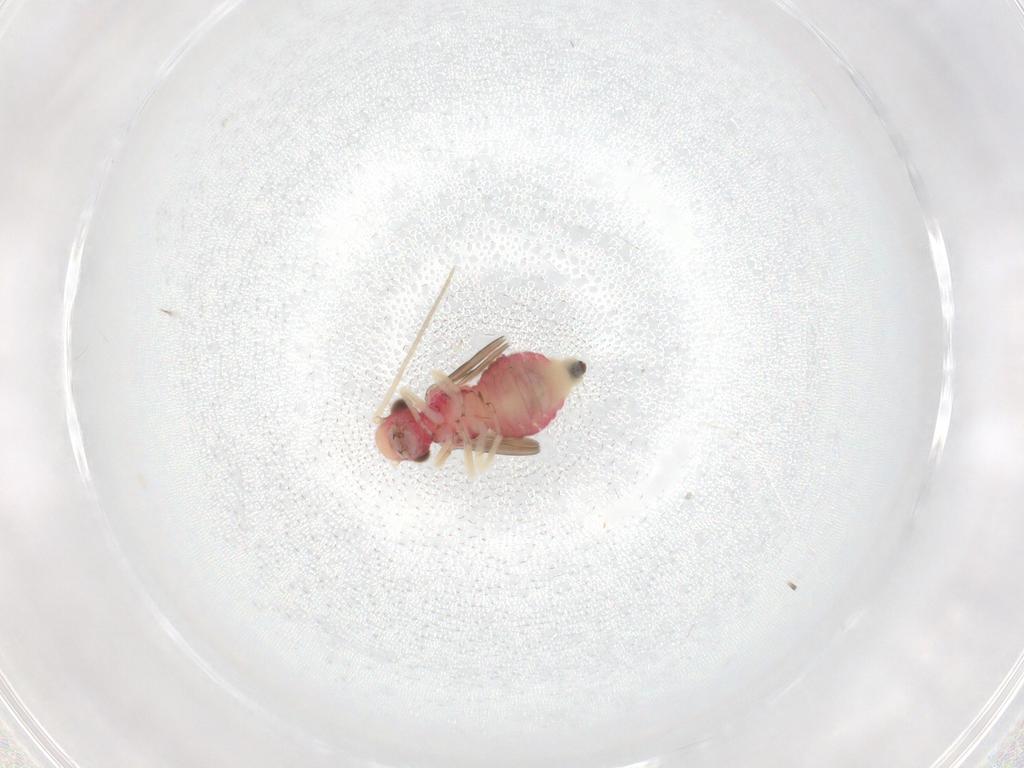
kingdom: Animalia
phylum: Arthropoda
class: Insecta
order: Psocodea
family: Caeciliusidae
